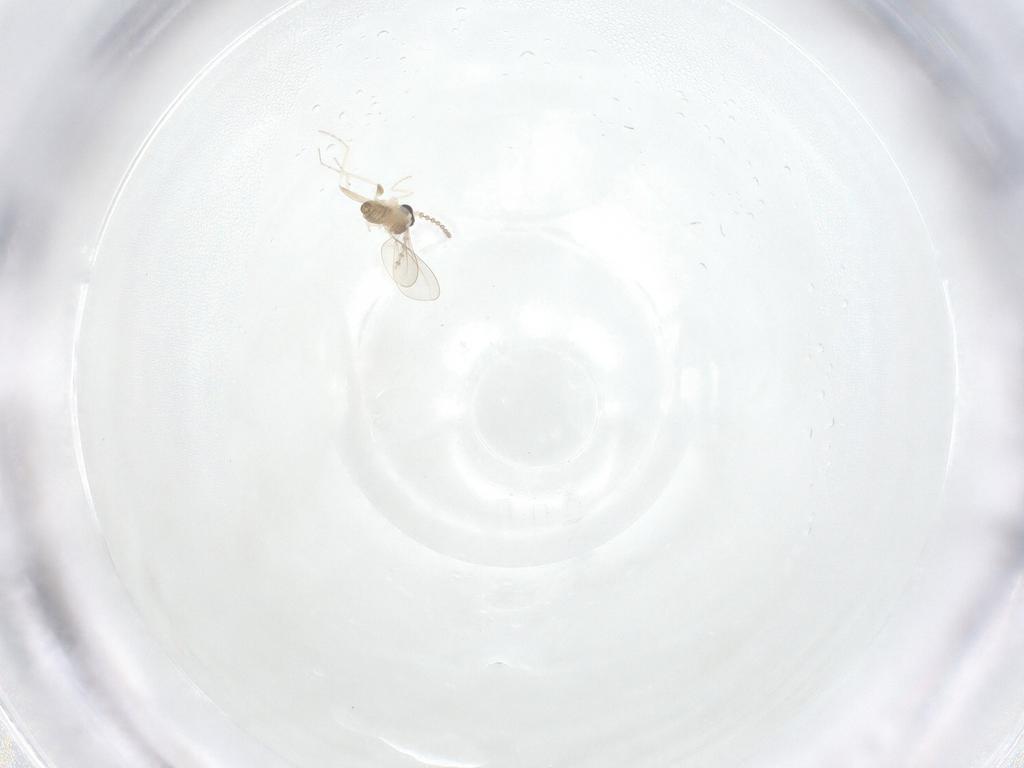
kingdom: Animalia
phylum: Arthropoda
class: Insecta
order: Diptera
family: Cecidomyiidae
